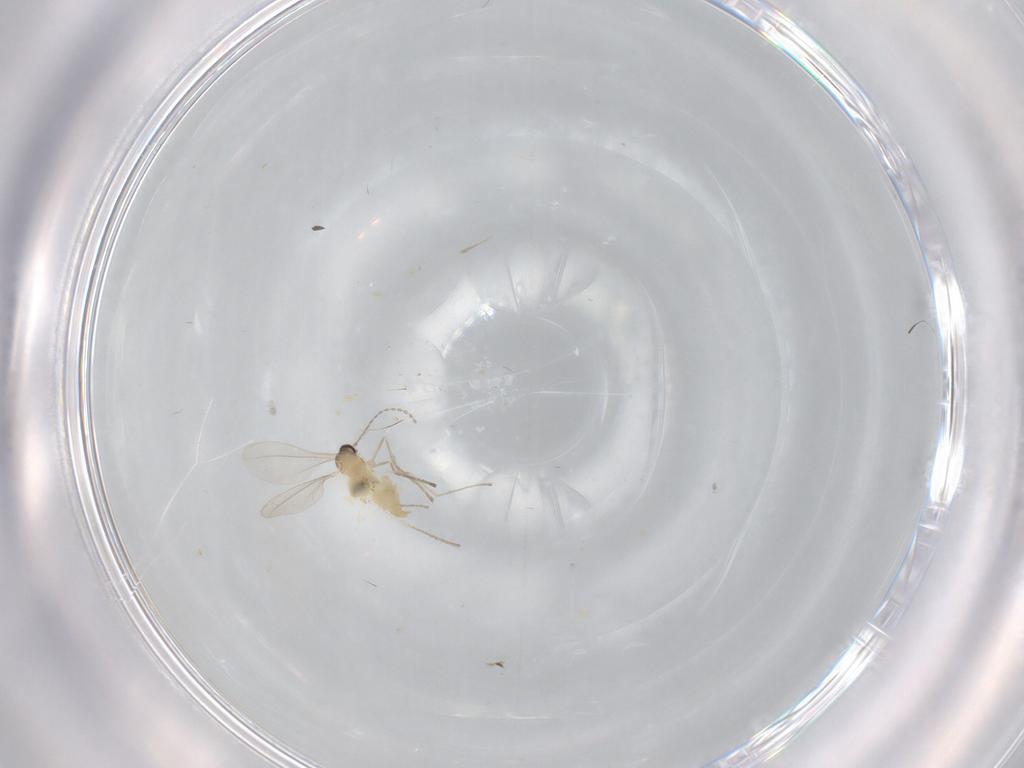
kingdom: Animalia
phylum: Arthropoda
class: Insecta
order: Diptera
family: Cecidomyiidae
